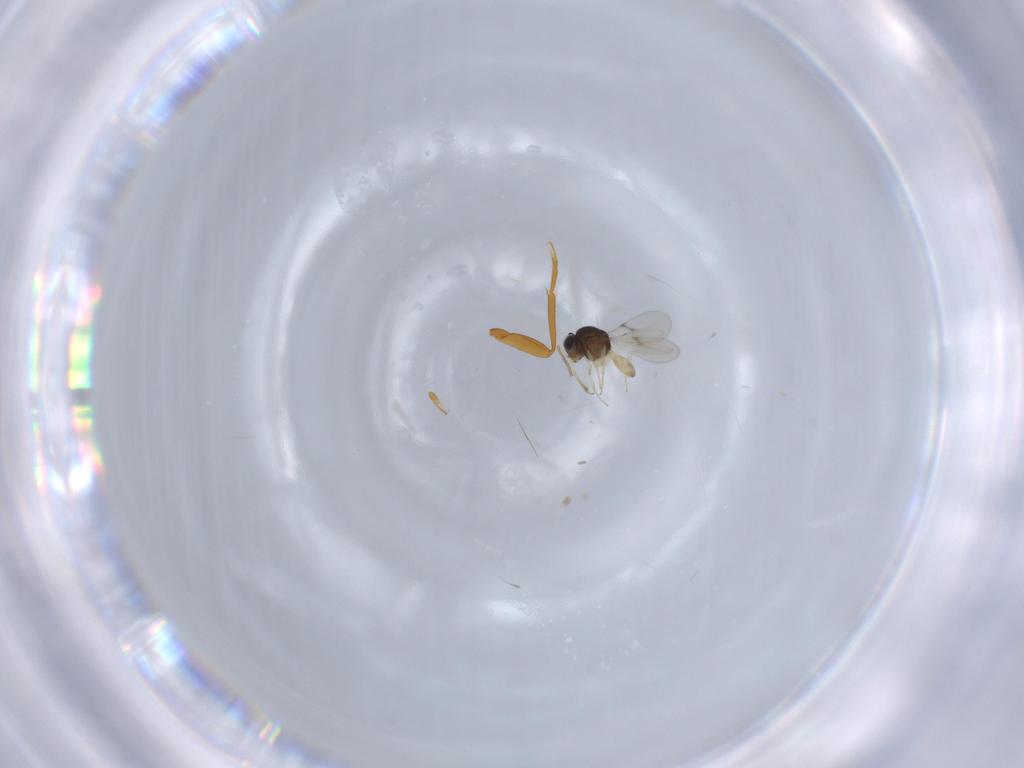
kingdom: Animalia
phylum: Arthropoda
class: Insecta
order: Hymenoptera
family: Scelionidae
